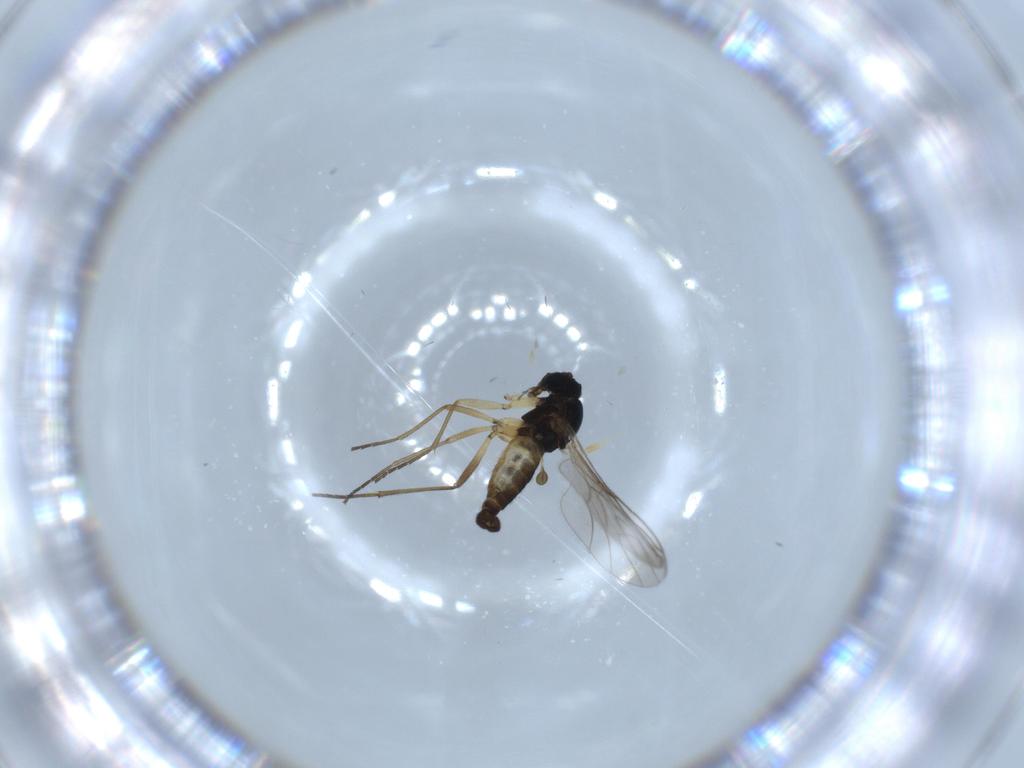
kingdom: Animalia
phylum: Arthropoda
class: Insecta
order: Diptera
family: Sciaridae
